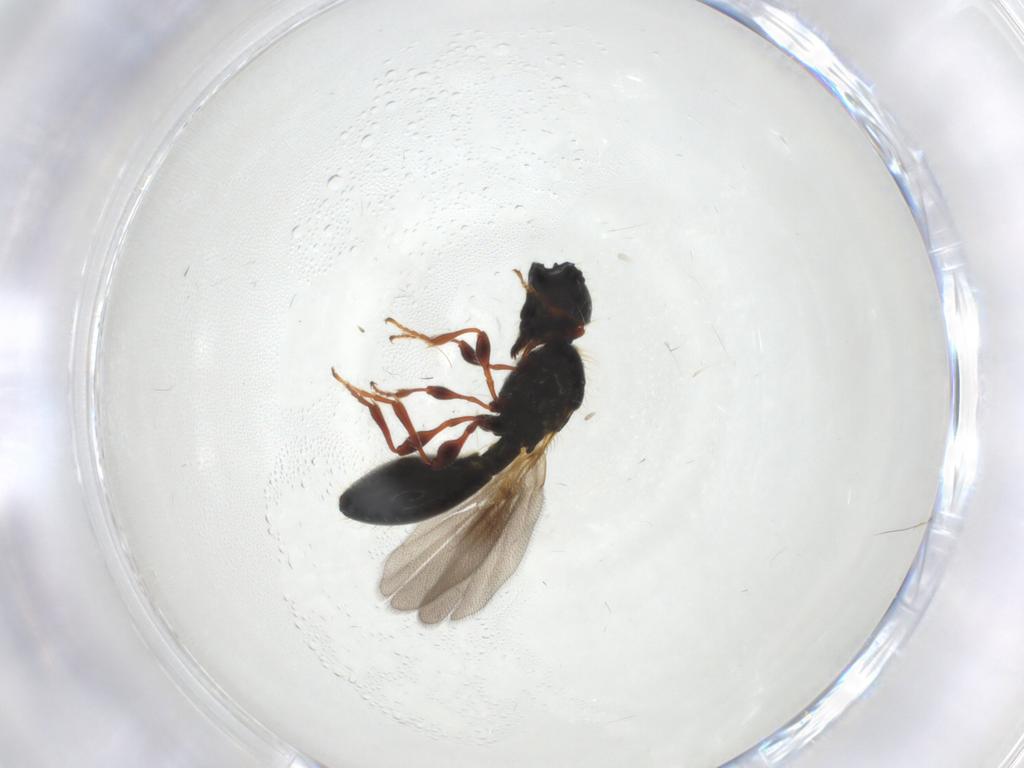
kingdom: Animalia
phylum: Arthropoda
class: Insecta
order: Hymenoptera
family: Diapriidae
